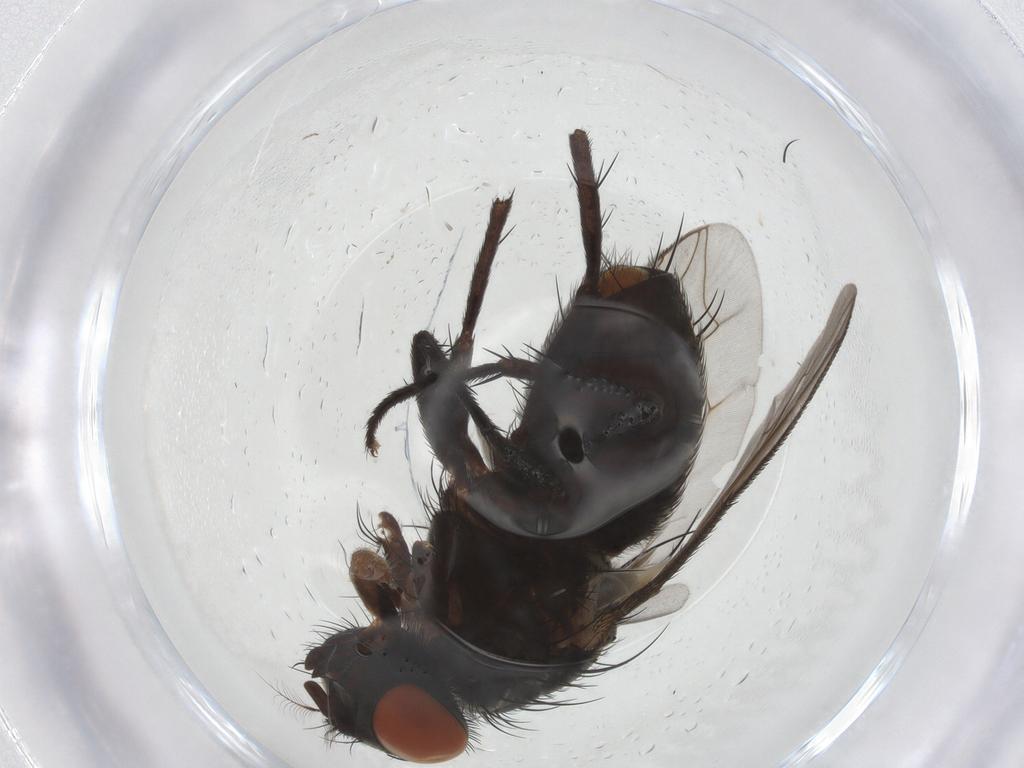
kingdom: Animalia
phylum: Arthropoda
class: Insecta
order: Diptera
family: Sarcophagidae
